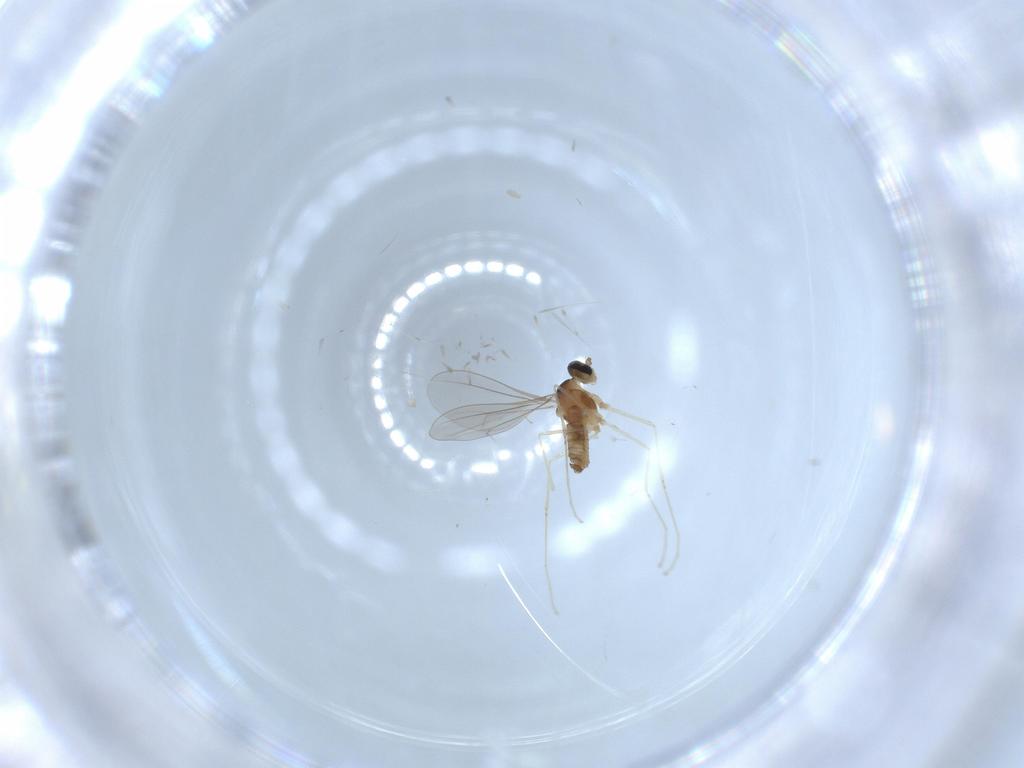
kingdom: Animalia
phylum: Arthropoda
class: Insecta
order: Diptera
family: Cecidomyiidae
